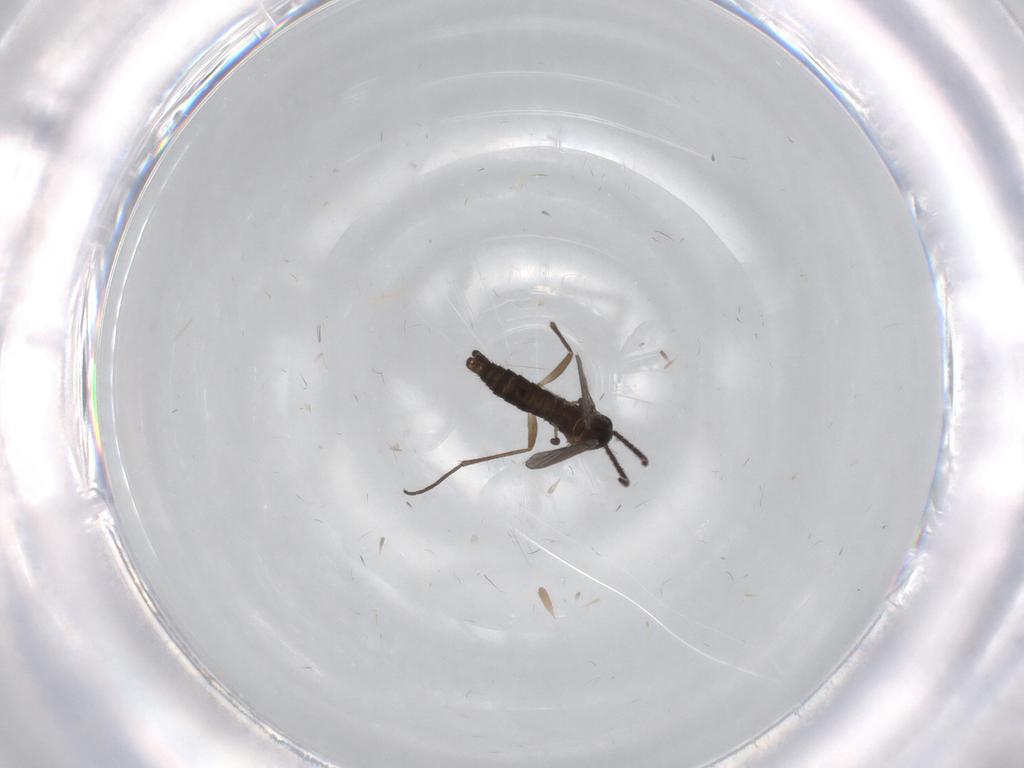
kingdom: Animalia
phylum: Arthropoda
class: Insecta
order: Diptera
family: Sciaridae
